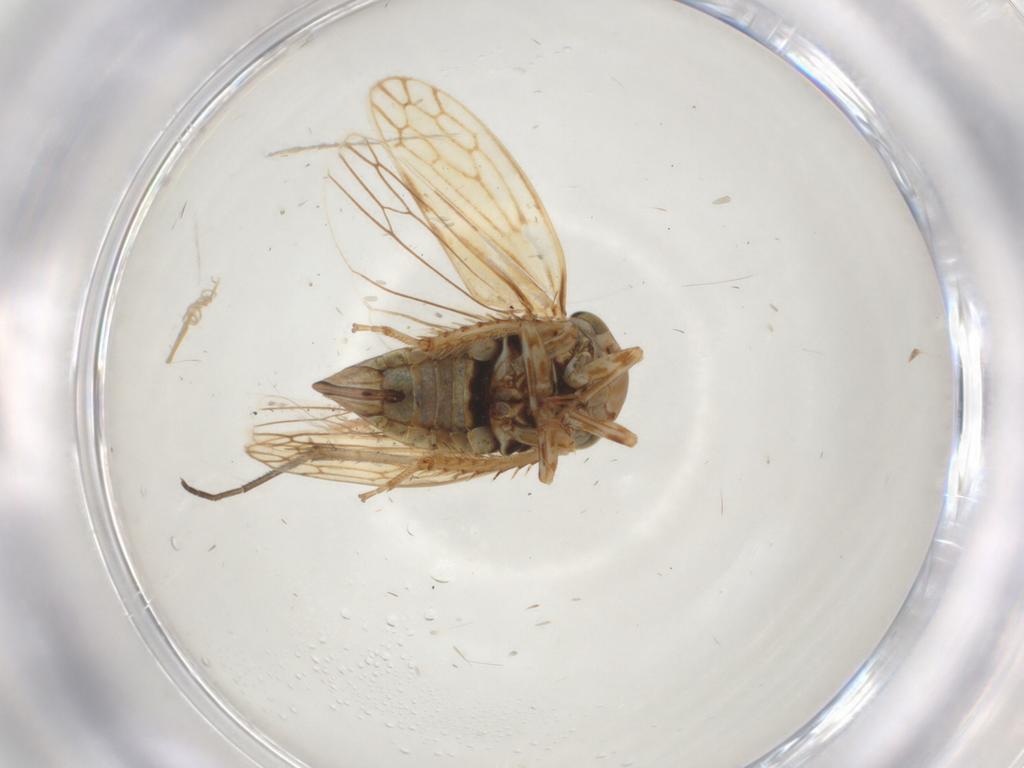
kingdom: Animalia
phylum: Arthropoda
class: Insecta
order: Hemiptera
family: Cicadellidae
